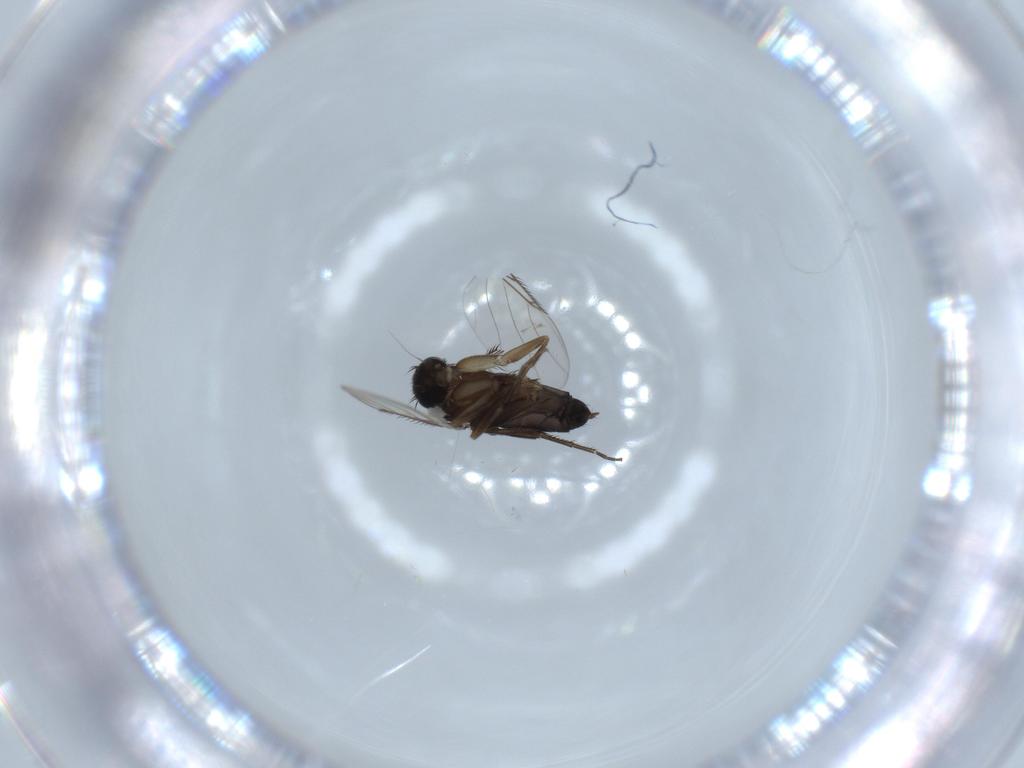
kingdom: Animalia
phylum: Arthropoda
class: Insecta
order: Diptera
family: Phoridae
